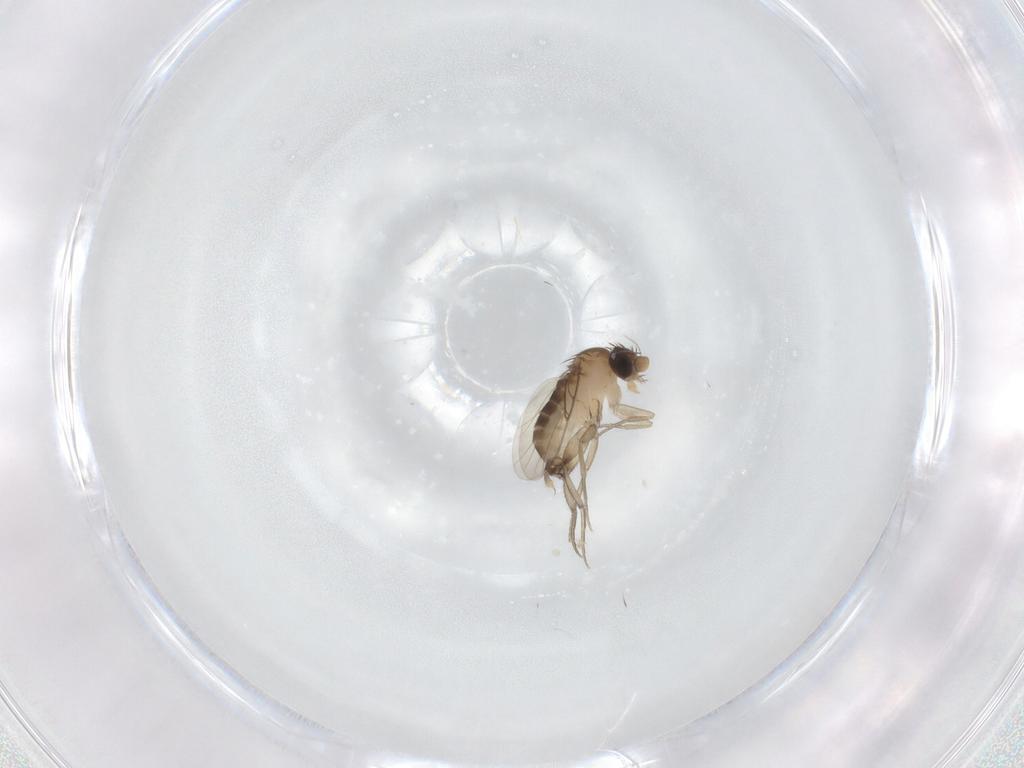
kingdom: Animalia
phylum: Arthropoda
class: Insecta
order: Diptera
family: Phoridae
